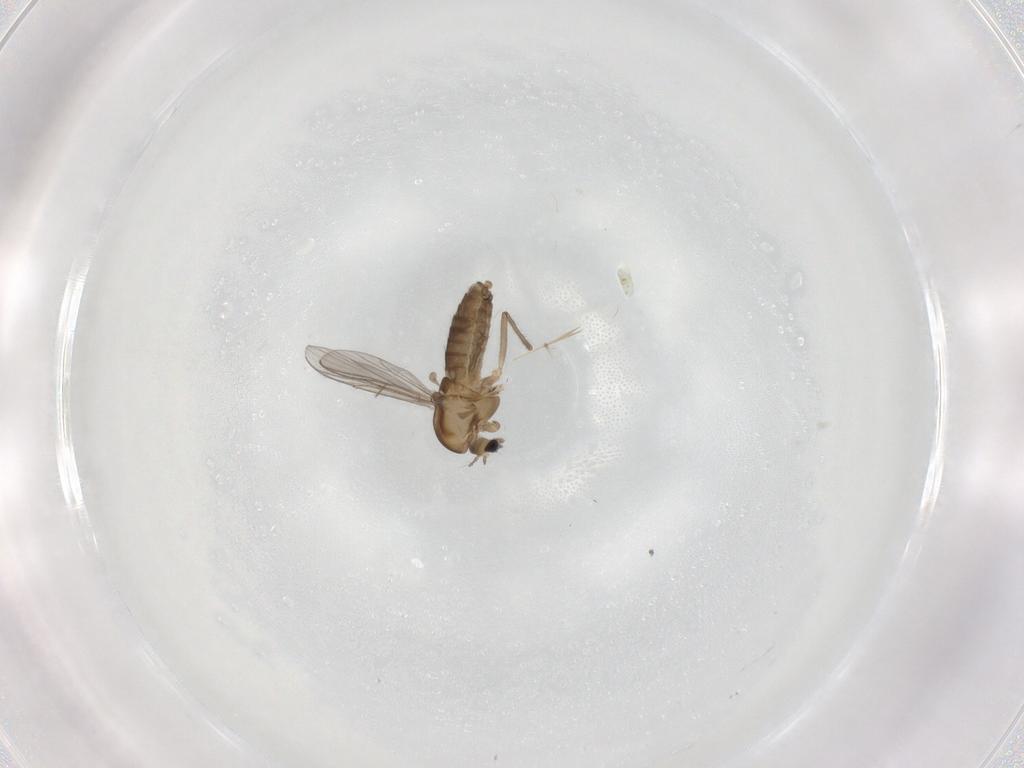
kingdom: Animalia
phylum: Arthropoda
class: Insecta
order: Diptera
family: Chironomidae
